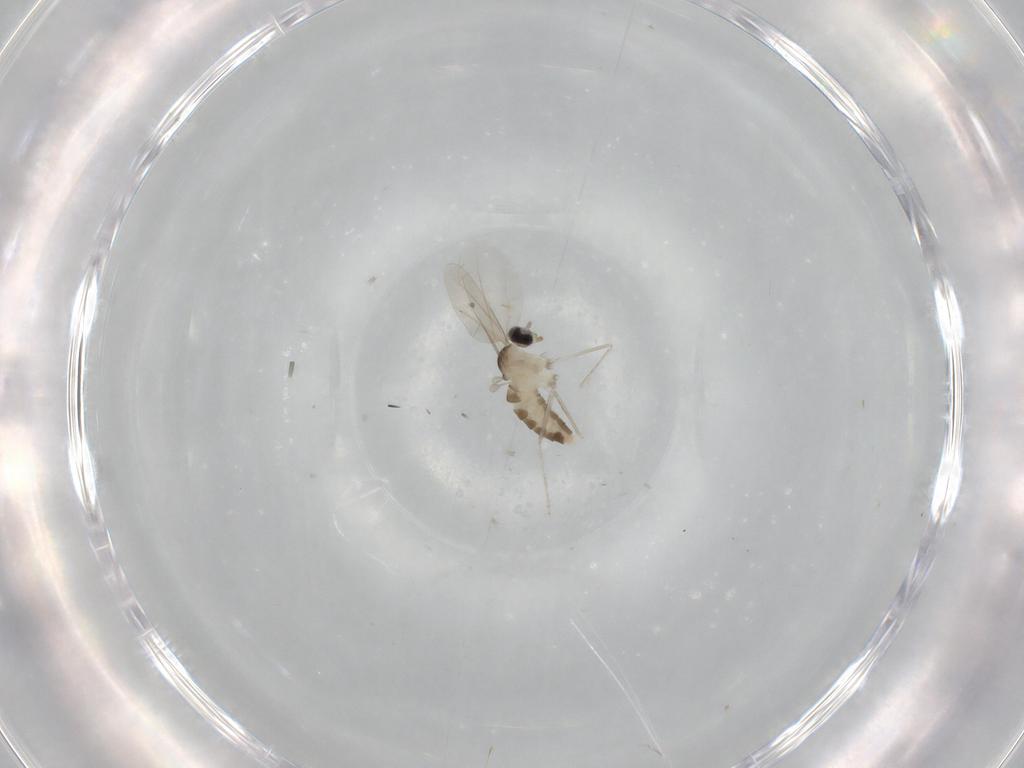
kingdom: Animalia
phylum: Arthropoda
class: Insecta
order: Diptera
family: Cecidomyiidae
